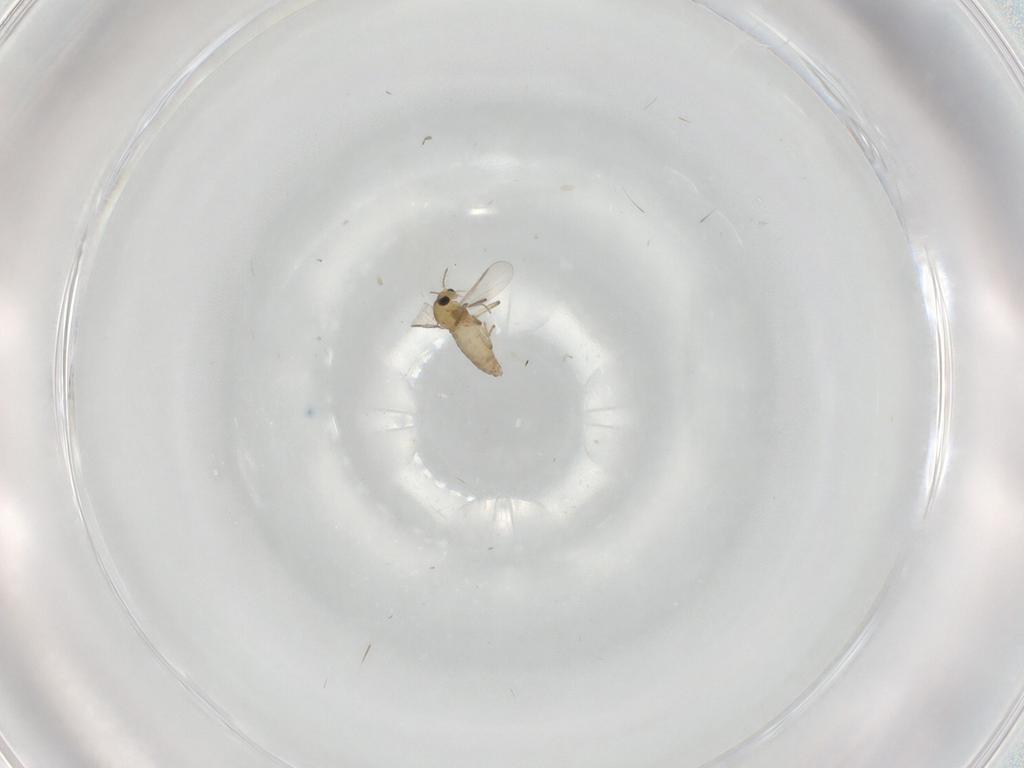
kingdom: Animalia
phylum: Arthropoda
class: Insecta
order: Diptera
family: Chironomidae
